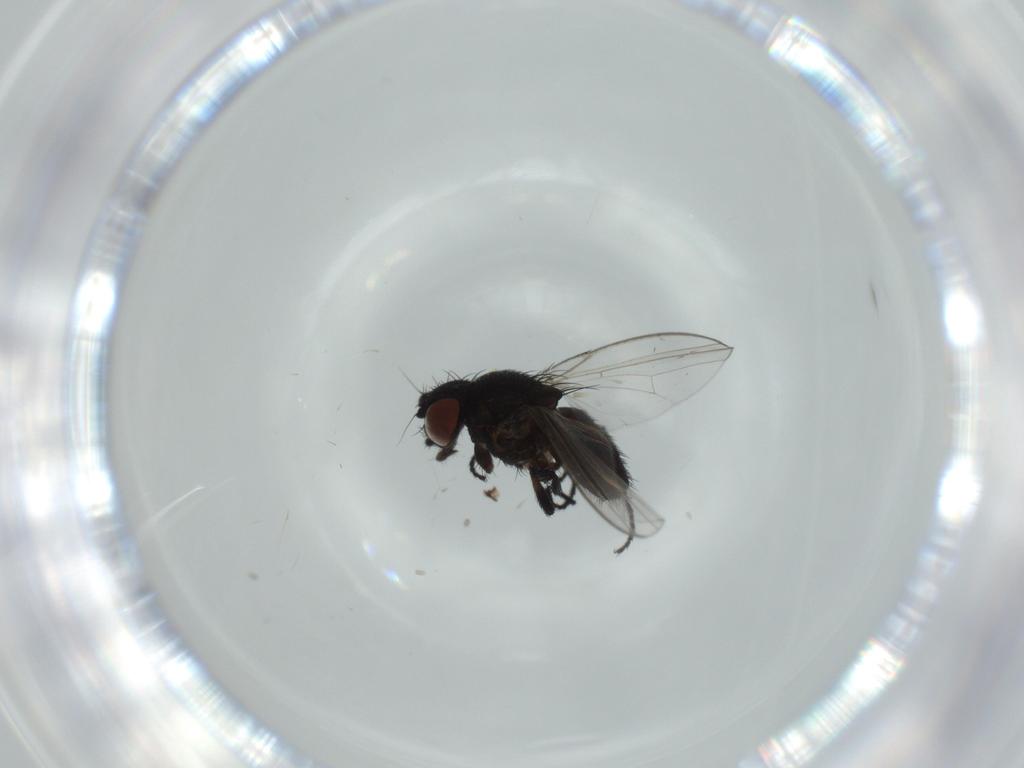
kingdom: Animalia
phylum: Arthropoda
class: Insecta
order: Diptera
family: Milichiidae
